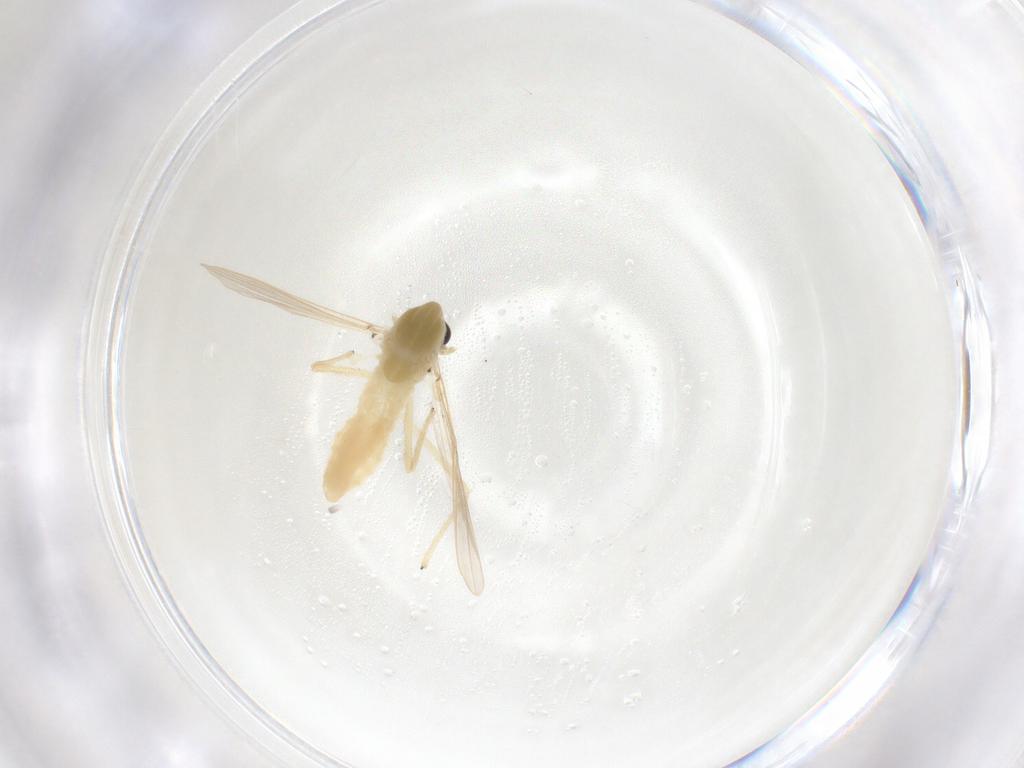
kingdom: Animalia
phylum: Arthropoda
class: Insecta
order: Diptera
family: Chironomidae
